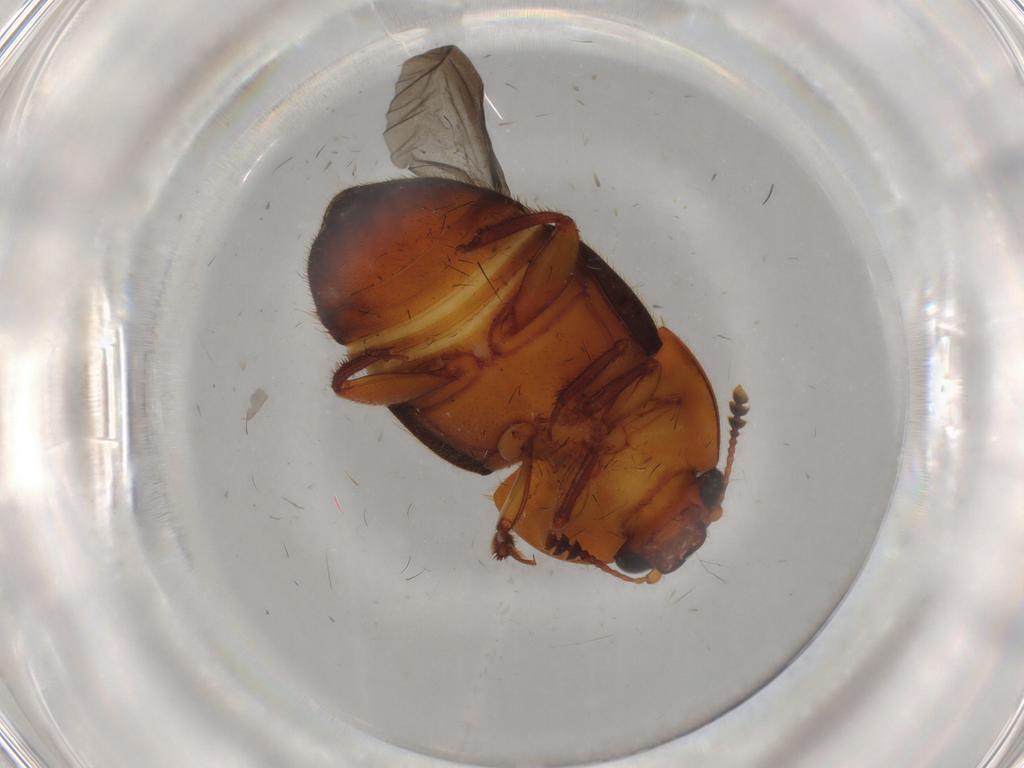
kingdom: Animalia
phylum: Arthropoda
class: Insecta
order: Coleoptera
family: Nitidulidae
